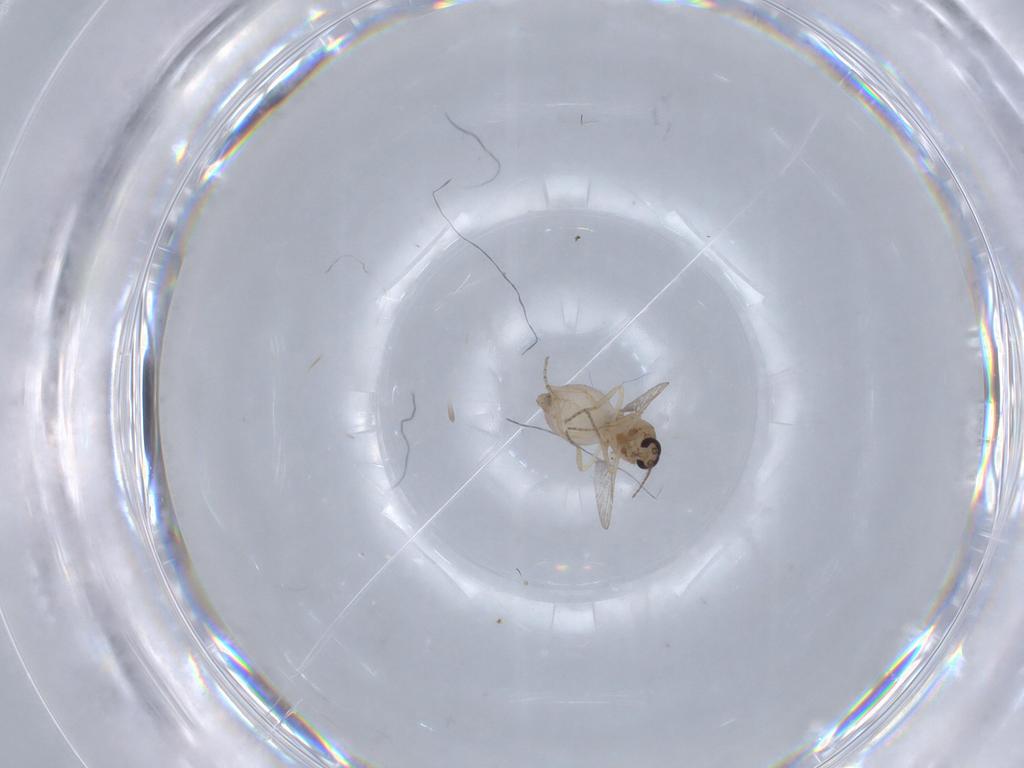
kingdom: Animalia
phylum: Arthropoda
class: Insecta
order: Diptera
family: Ceratopogonidae
